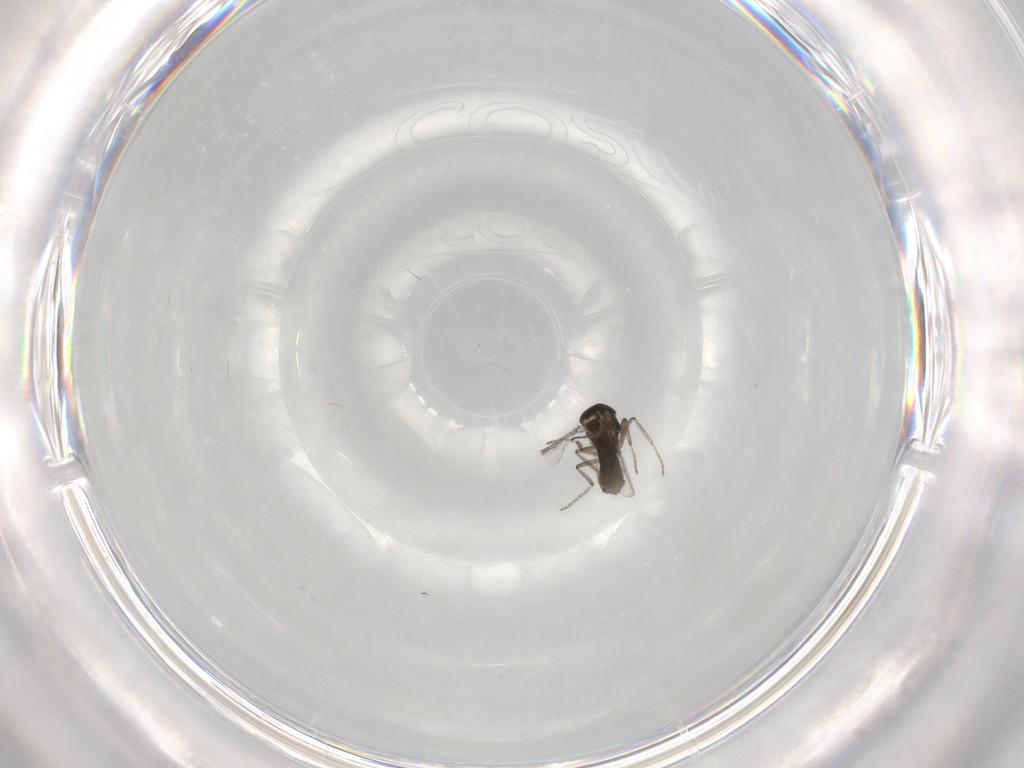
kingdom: Animalia
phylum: Arthropoda
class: Insecta
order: Diptera
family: Ceratopogonidae
